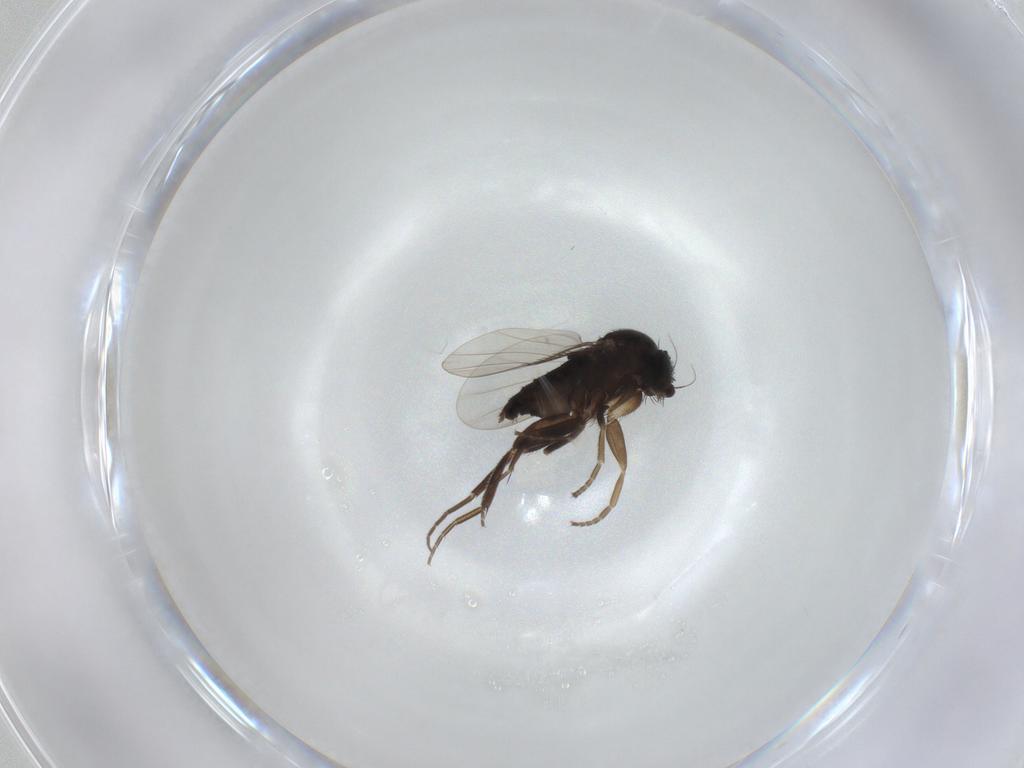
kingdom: Animalia
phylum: Arthropoda
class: Insecta
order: Diptera
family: Phoridae
